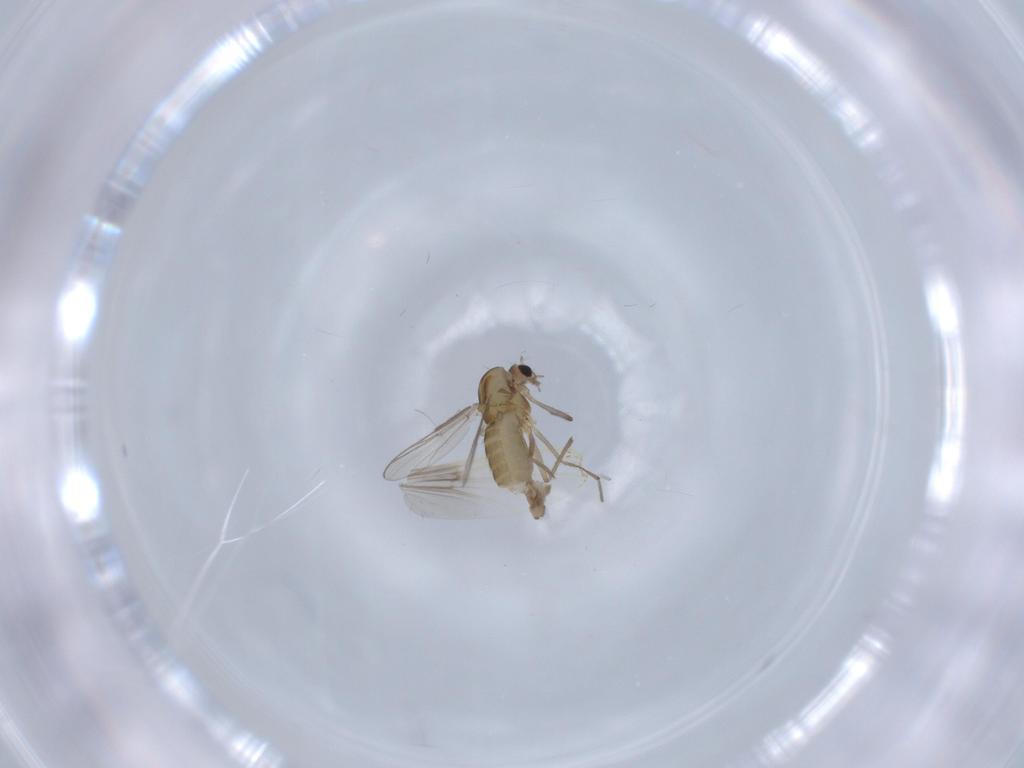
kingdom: Animalia
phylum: Arthropoda
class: Insecta
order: Diptera
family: Chironomidae
